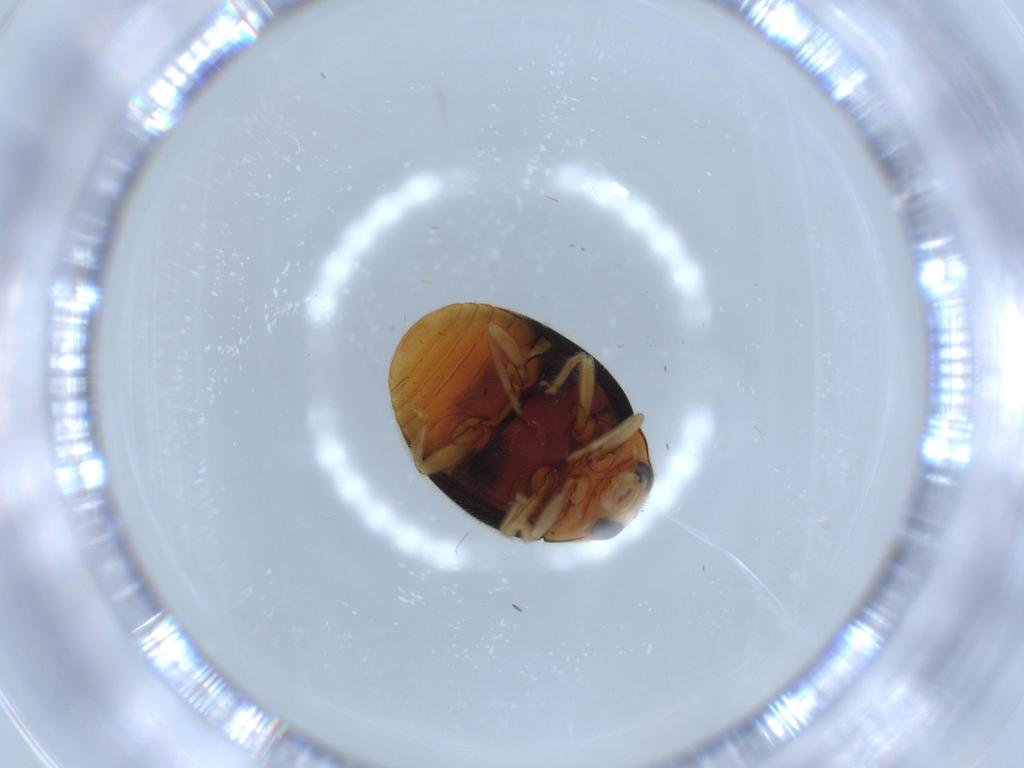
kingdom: Animalia
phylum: Arthropoda
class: Insecta
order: Coleoptera
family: Coccinellidae
